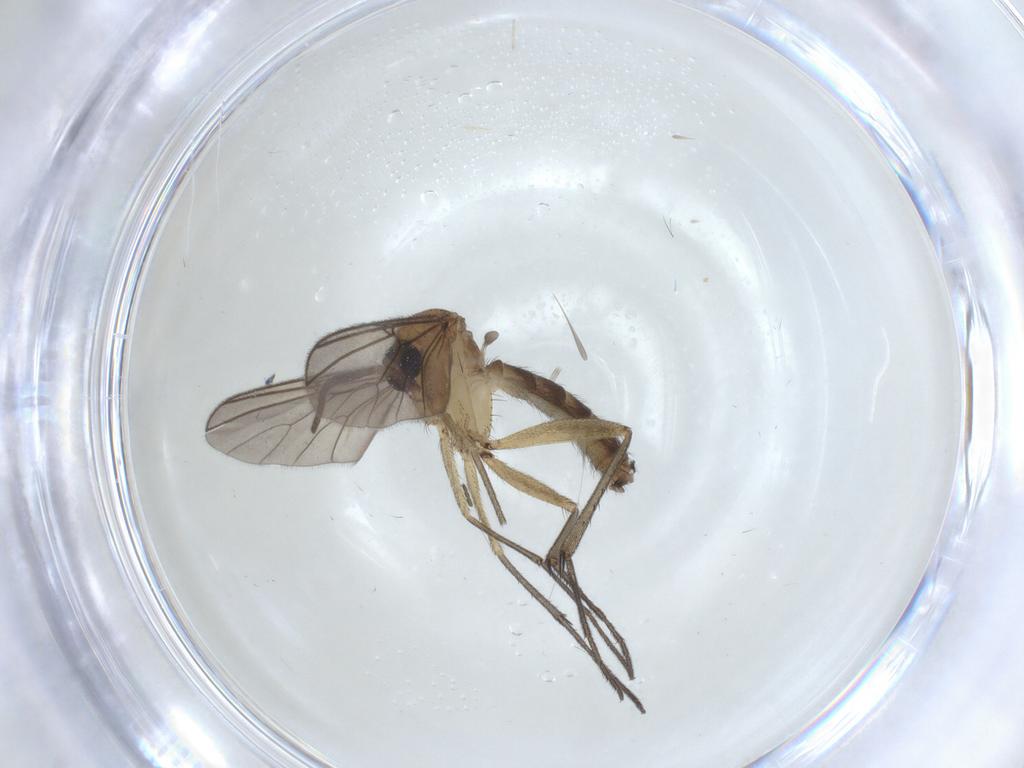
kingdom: Animalia
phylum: Arthropoda
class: Insecta
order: Diptera
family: Mycetophilidae
